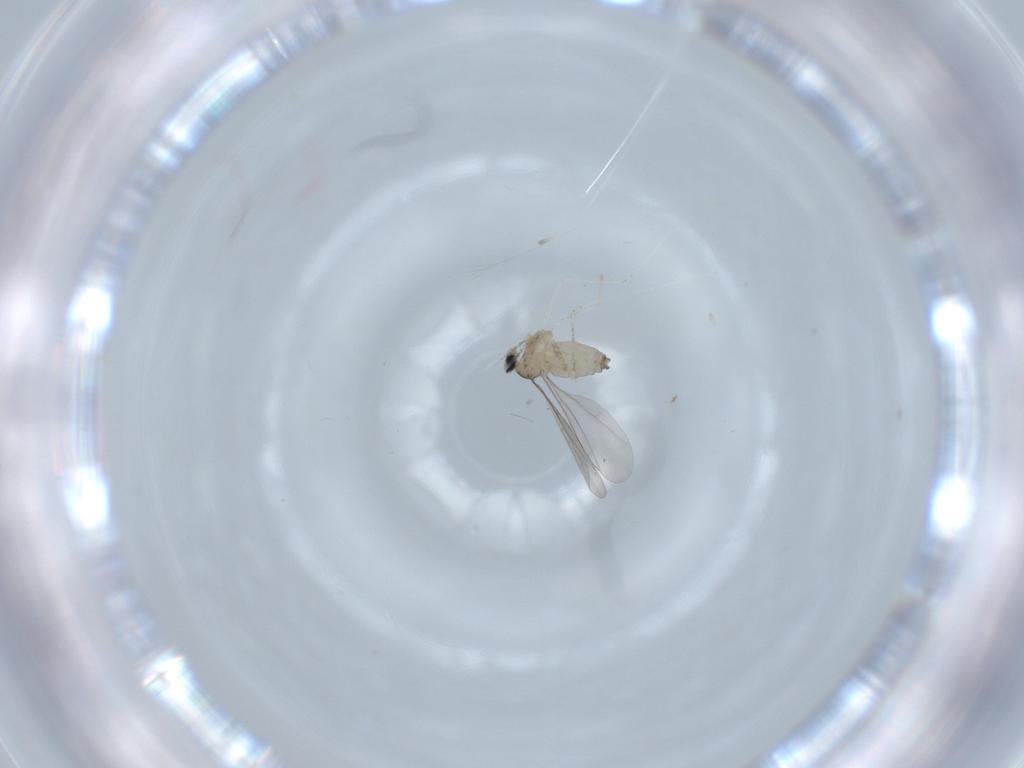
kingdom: Animalia
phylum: Arthropoda
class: Insecta
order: Diptera
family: Cecidomyiidae
